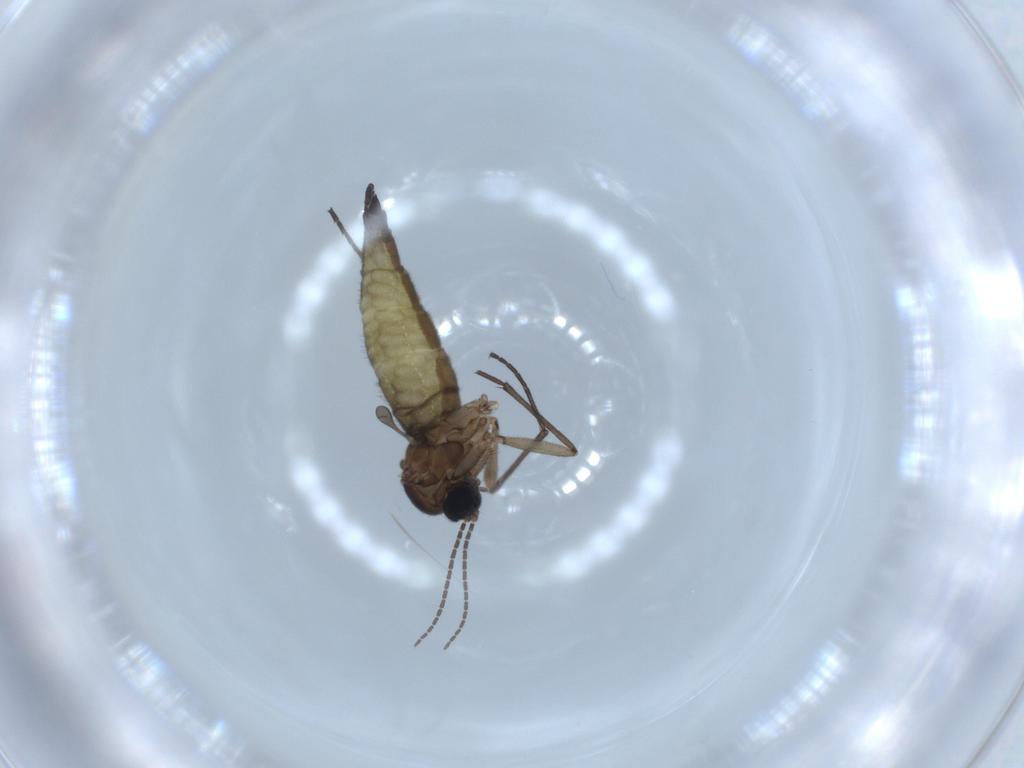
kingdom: Animalia
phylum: Arthropoda
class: Insecta
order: Diptera
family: Sciaridae
